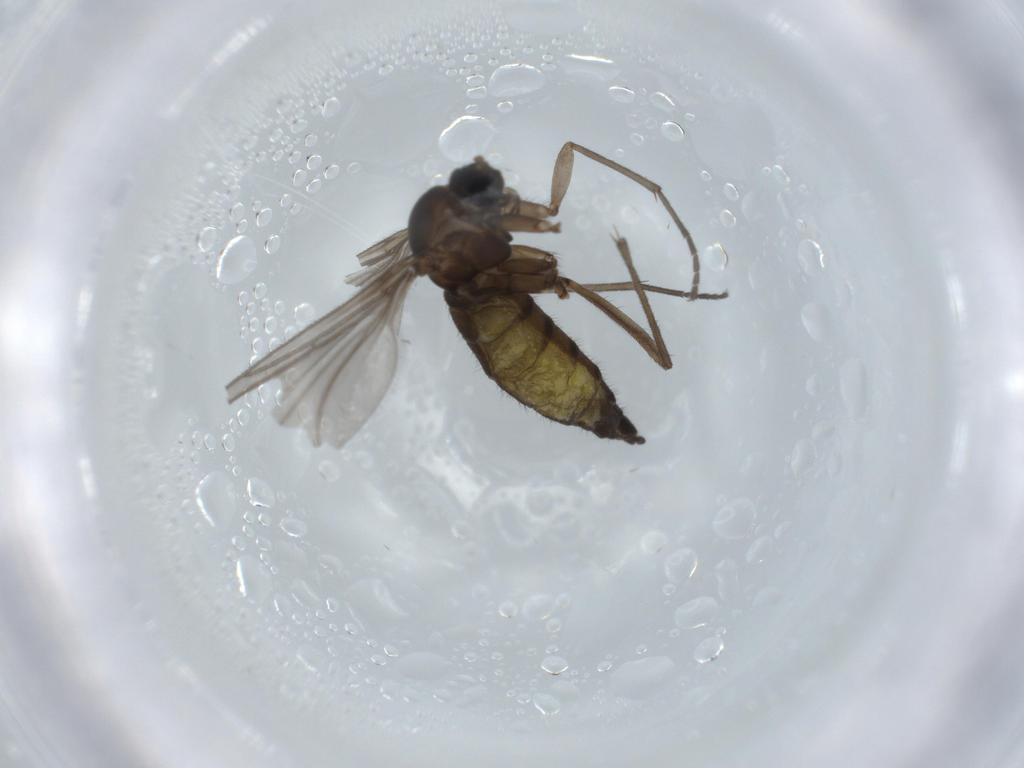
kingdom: Animalia
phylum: Arthropoda
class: Insecta
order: Diptera
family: Sciaridae
